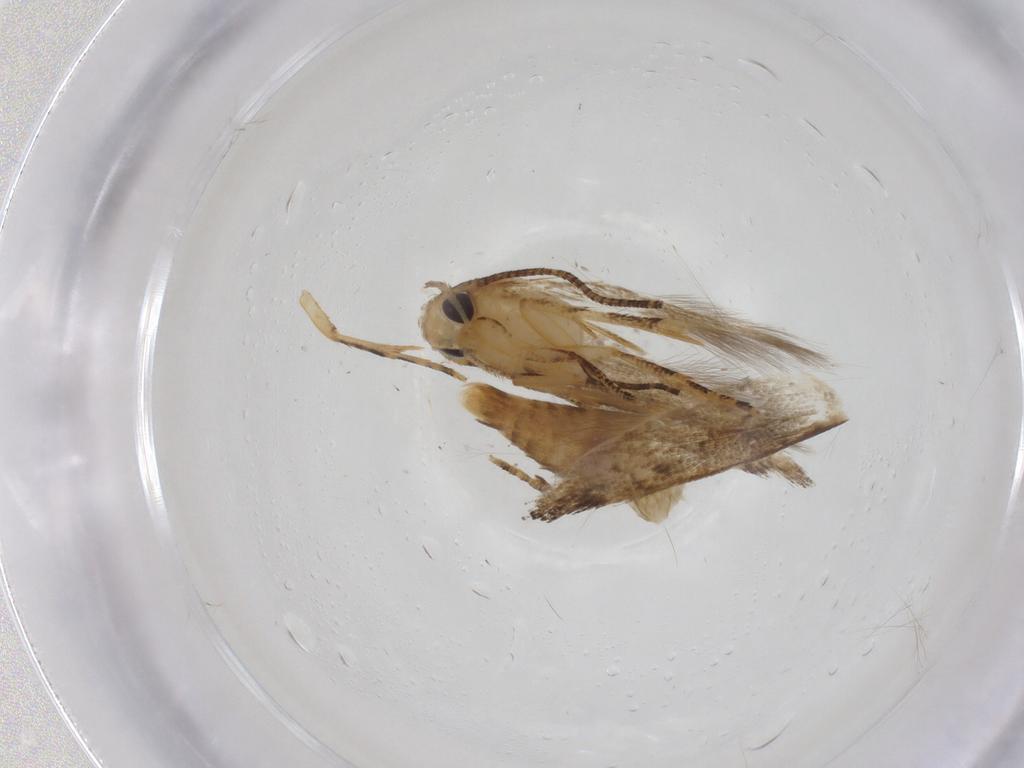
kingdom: Animalia
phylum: Arthropoda
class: Insecta
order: Lepidoptera
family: Momphidae
